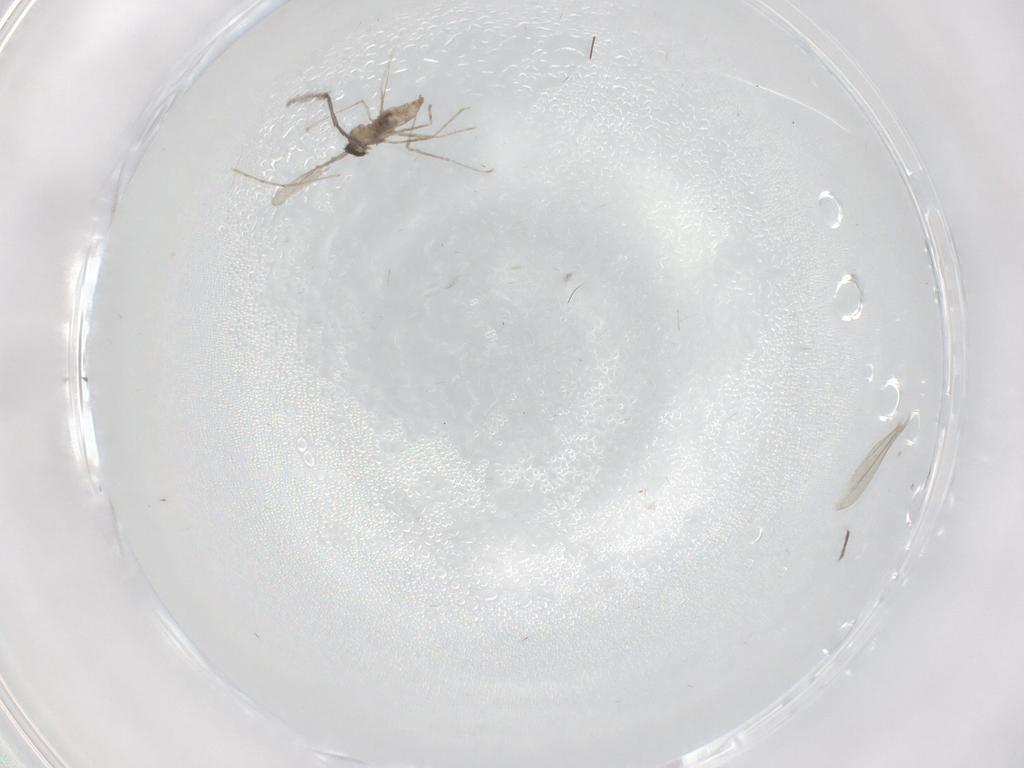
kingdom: Animalia
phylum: Arthropoda
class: Insecta
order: Diptera
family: Cecidomyiidae
